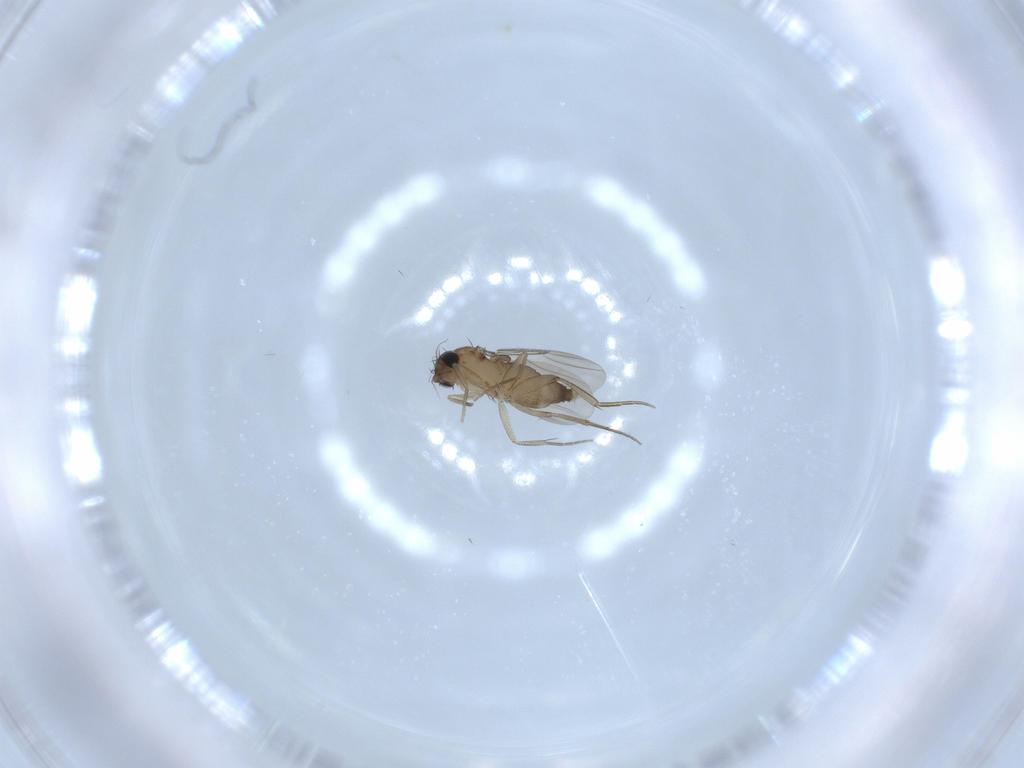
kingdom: Animalia
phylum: Arthropoda
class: Insecta
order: Diptera
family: Phoridae
